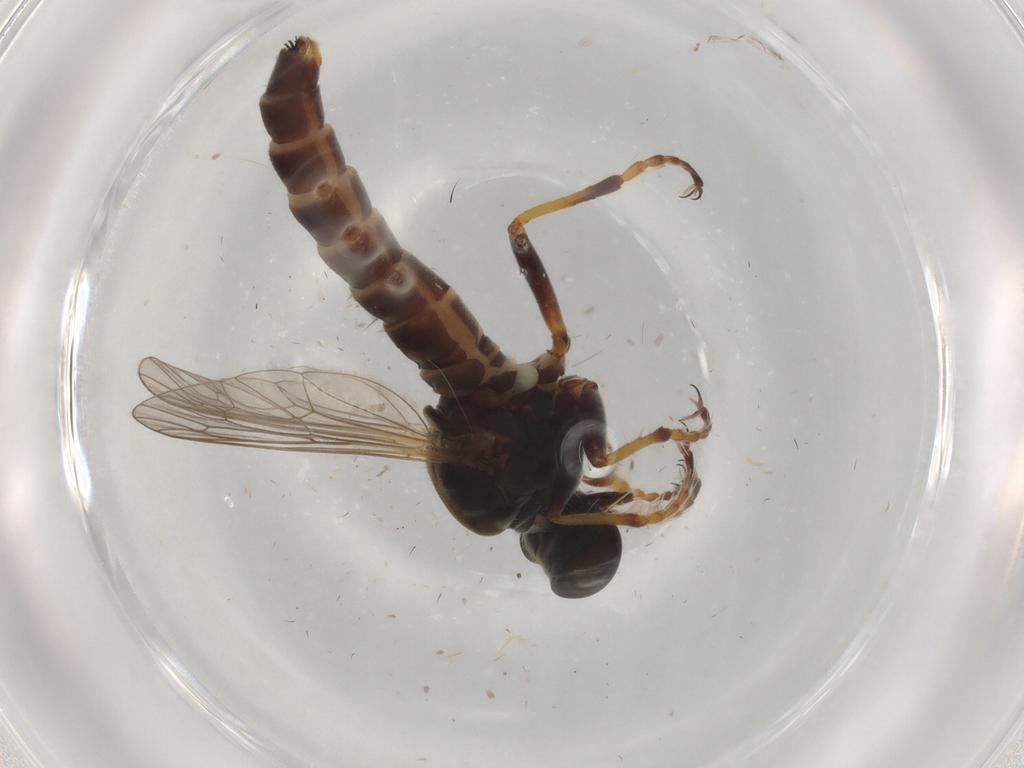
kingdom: Animalia
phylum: Arthropoda
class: Insecta
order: Diptera
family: Asilidae
